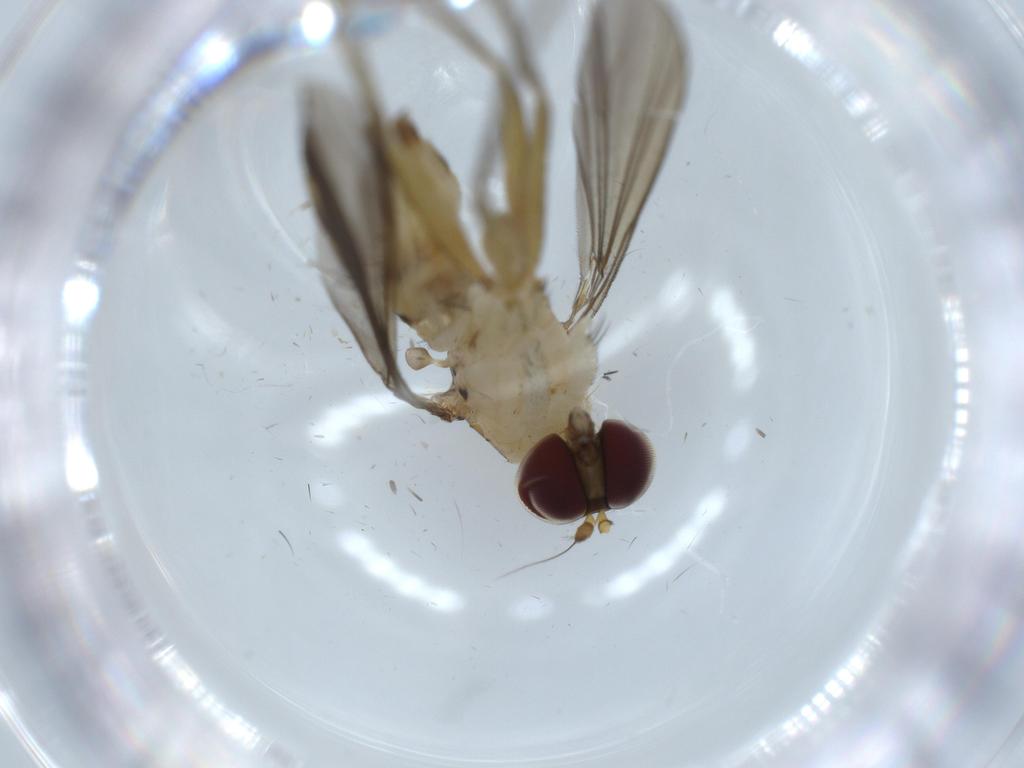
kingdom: Animalia
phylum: Arthropoda
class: Insecta
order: Diptera
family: Dolichopodidae
